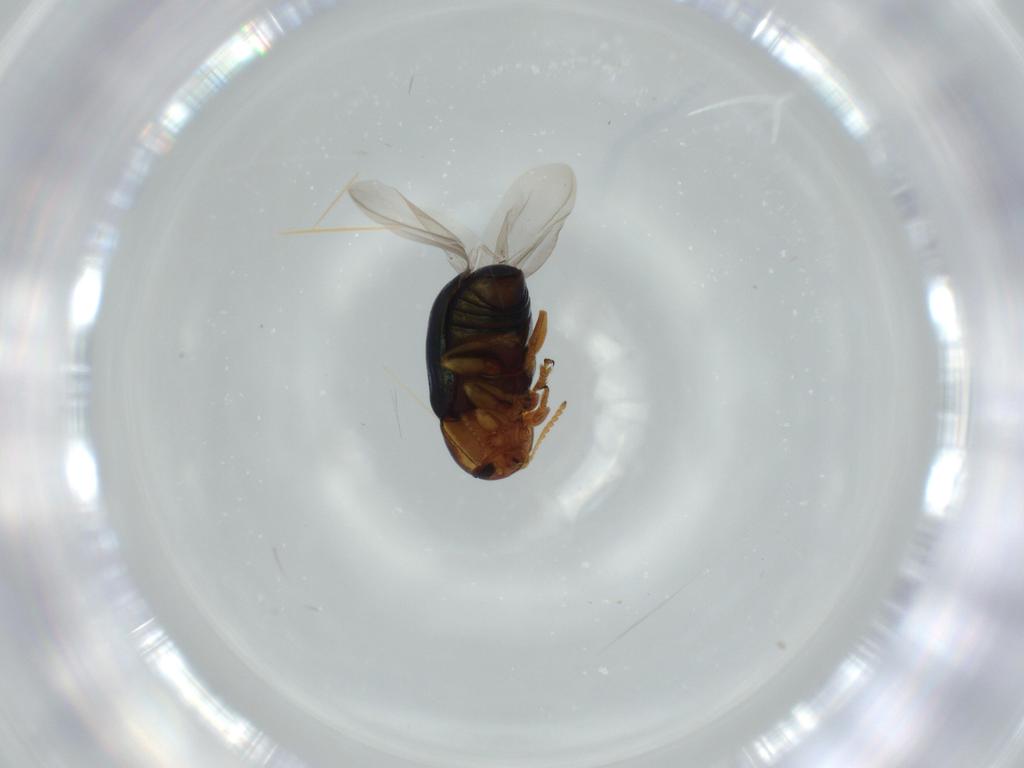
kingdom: Animalia
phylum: Arthropoda
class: Insecta
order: Coleoptera
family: Chrysomelidae
